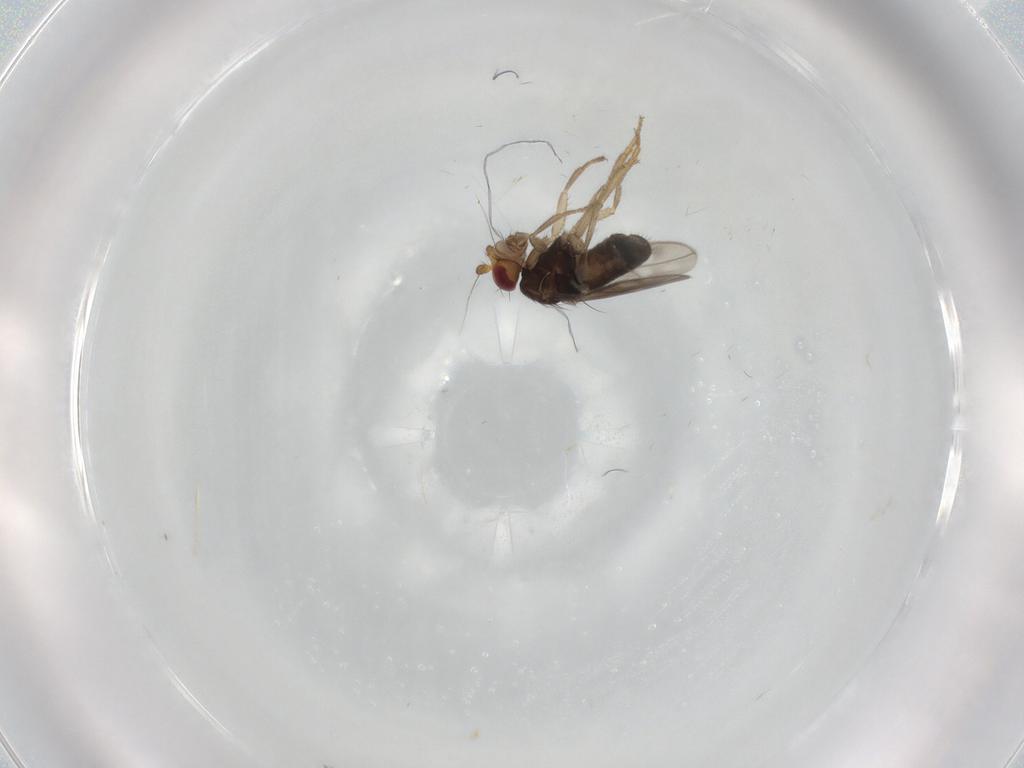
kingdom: Animalia
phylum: Arthropoda
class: Insecta
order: Diptera
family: Sphaeroceridae
